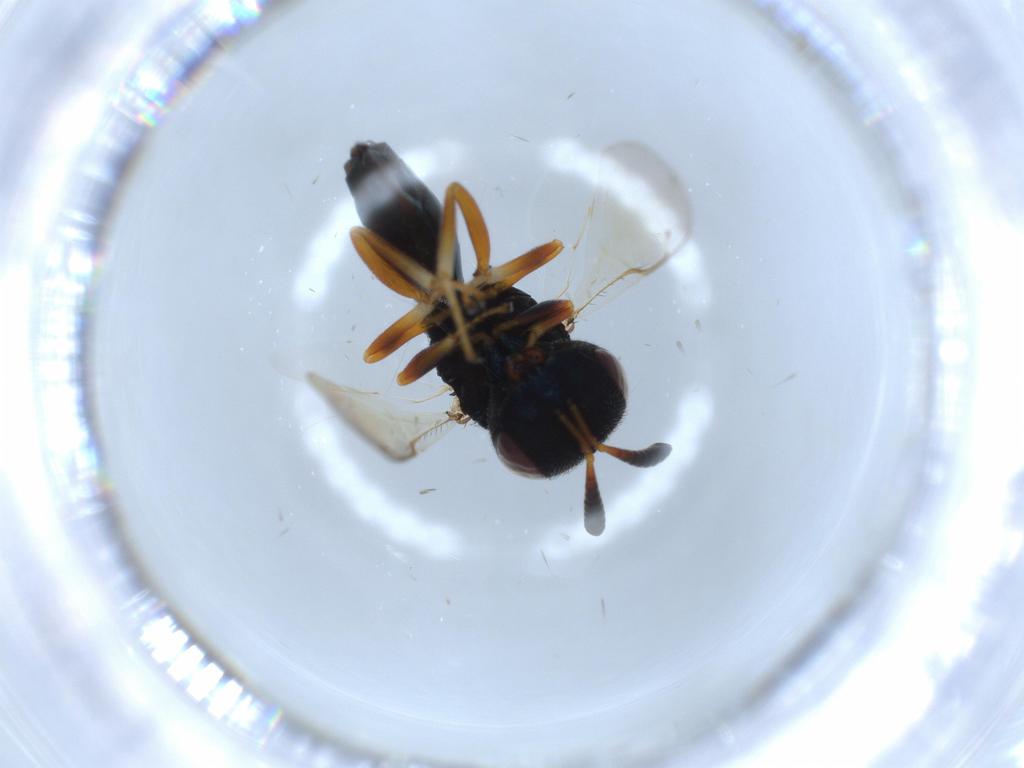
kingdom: Animalia
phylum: Arthropoda
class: Insecta
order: Hymenoptera
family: Agaonidae
